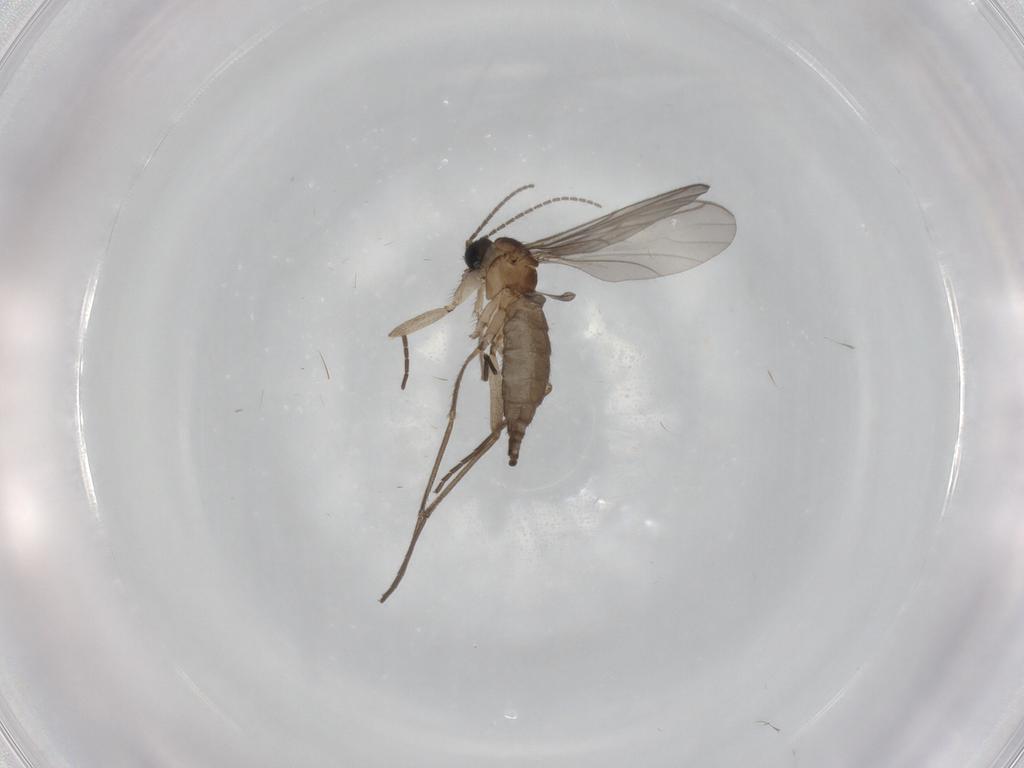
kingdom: Animalia
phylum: Arthropoda
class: Insecta
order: Diptera
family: Sciaridae
